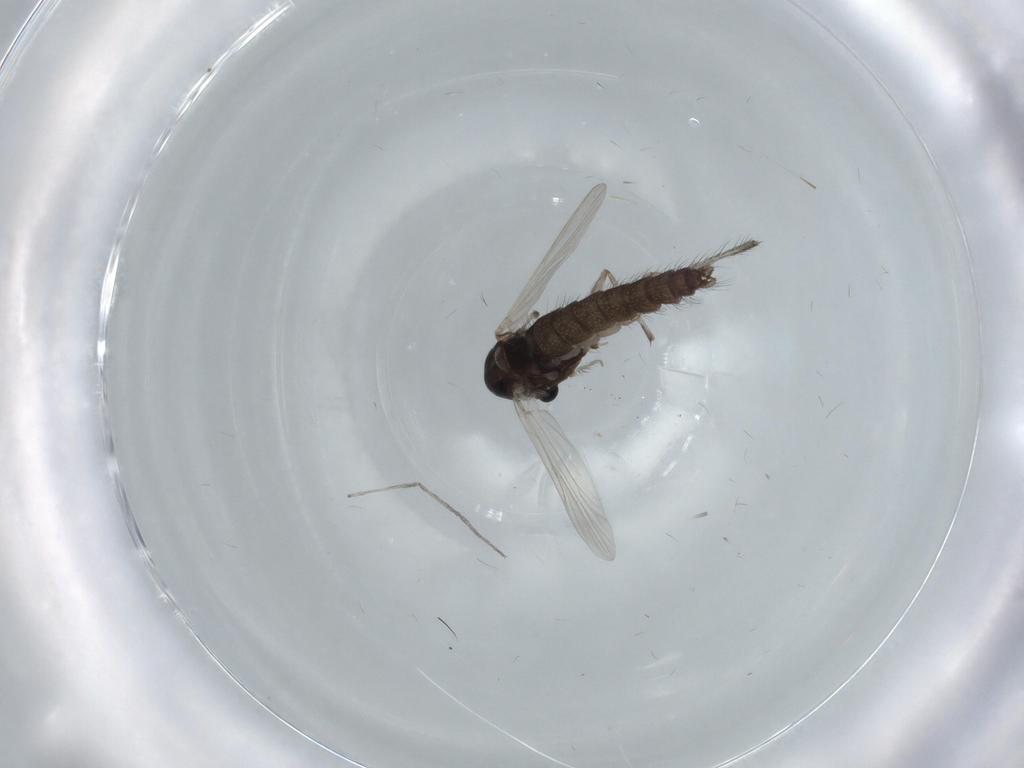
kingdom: Animalia
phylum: Arthropoda
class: Insecta
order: Diptera
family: Chironomidae
